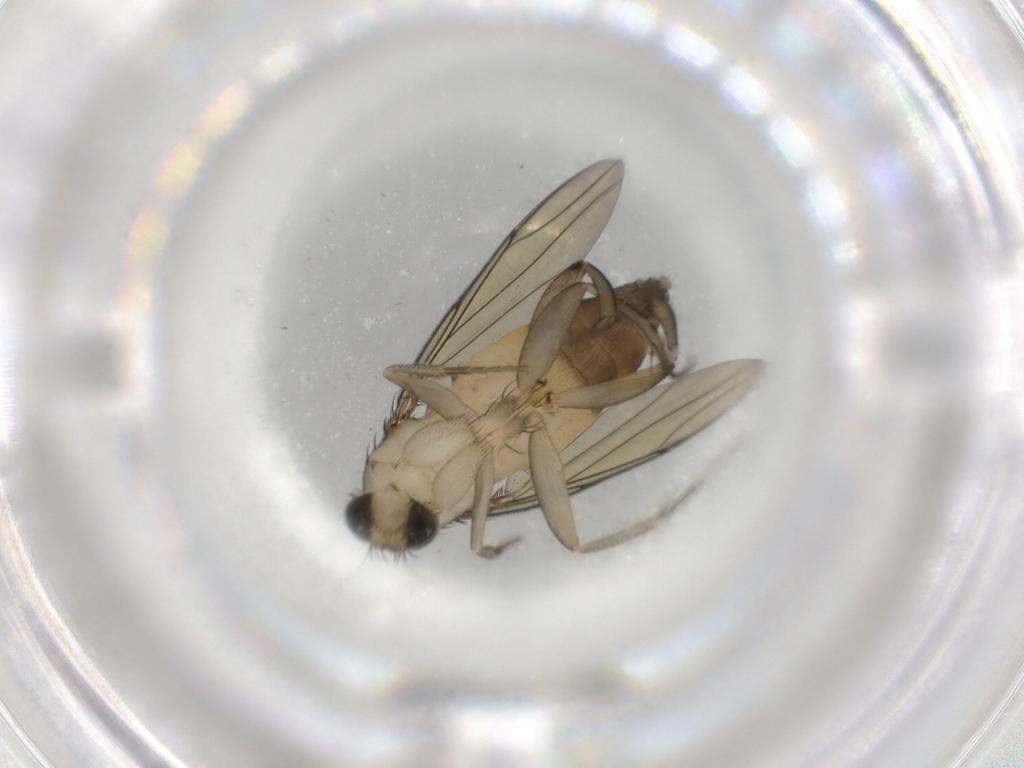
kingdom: Animalia
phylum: Arthropoda
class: Insecta
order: Diptera
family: Phoridae
